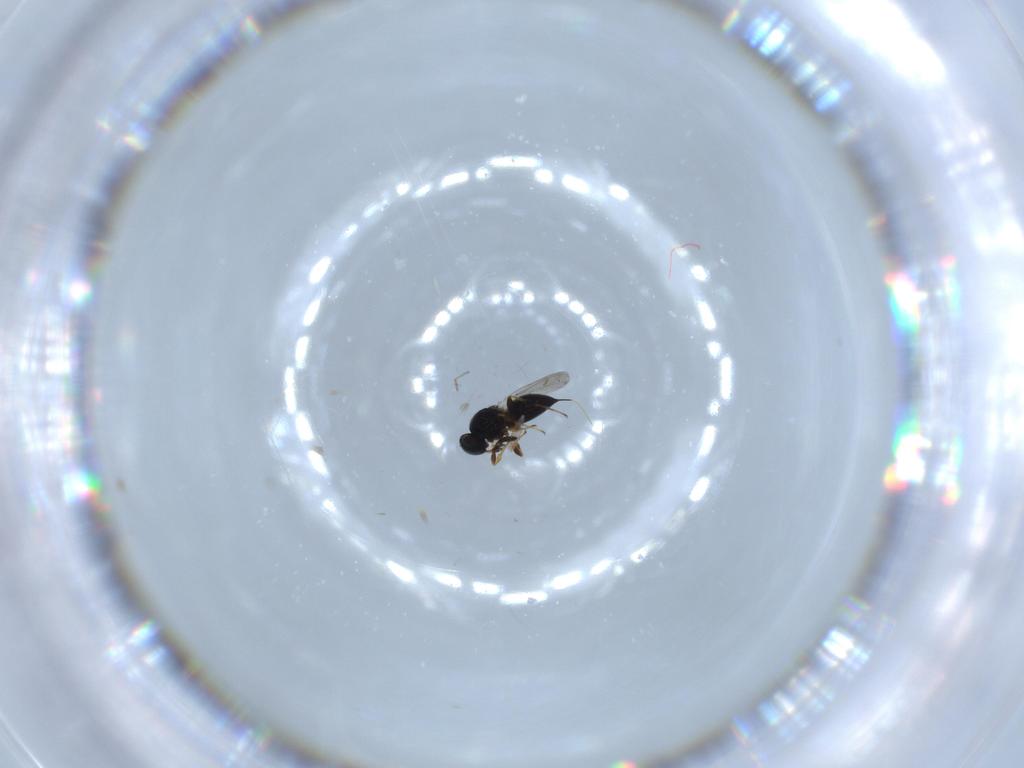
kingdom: Animalia
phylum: Arthropoda
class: Insecta
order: Hymenoptera
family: Platygastridae
